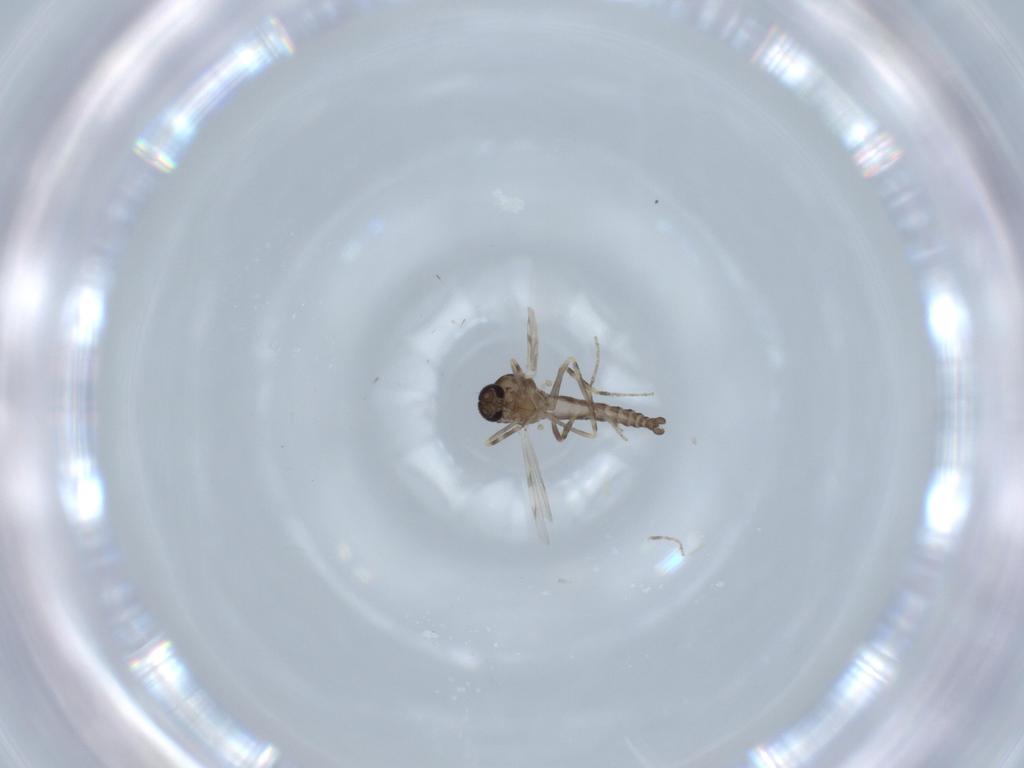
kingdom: Animalia
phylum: Arthropoda
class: Insecta
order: Diptera
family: Ceratopogonidae
